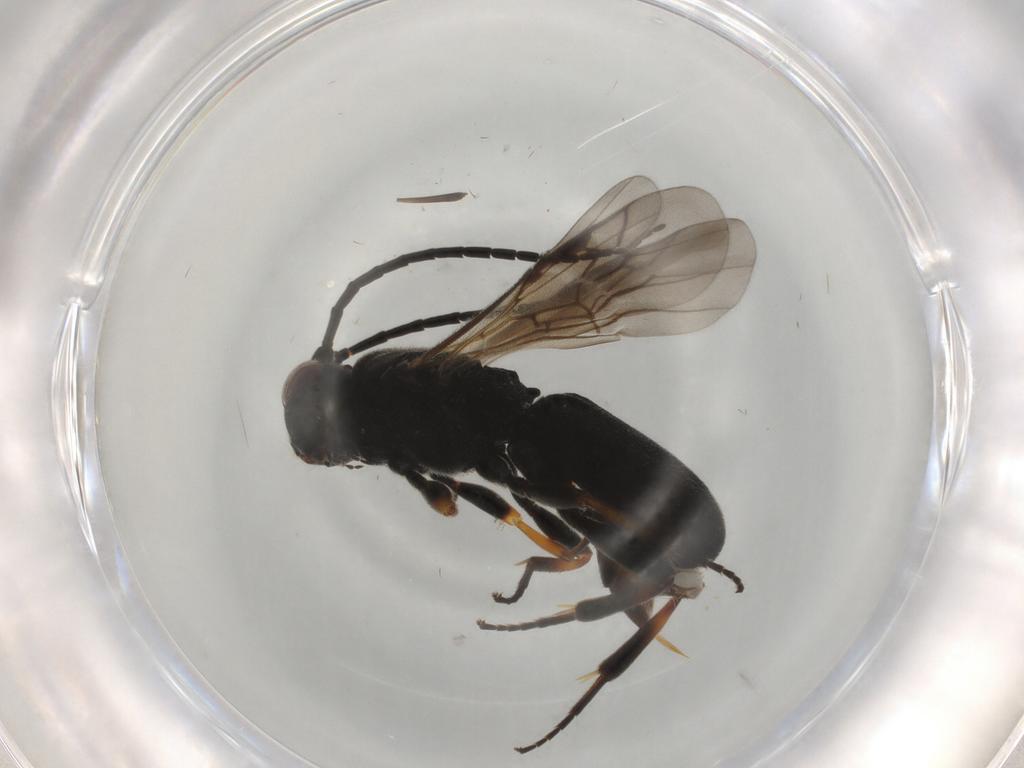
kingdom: Animalia
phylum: Arthropoda
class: Insecta
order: Hymenoptera
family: Braconidae
